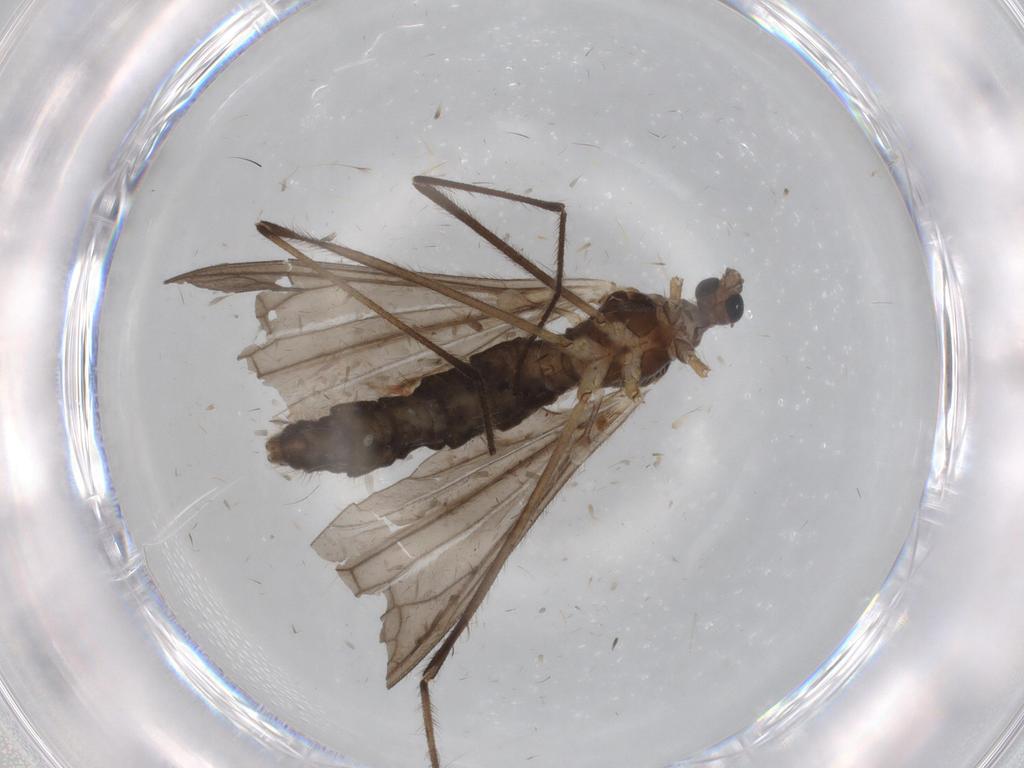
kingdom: Animalia
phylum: Arthropoda
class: Insecta
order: Diptera
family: Limoniidae
